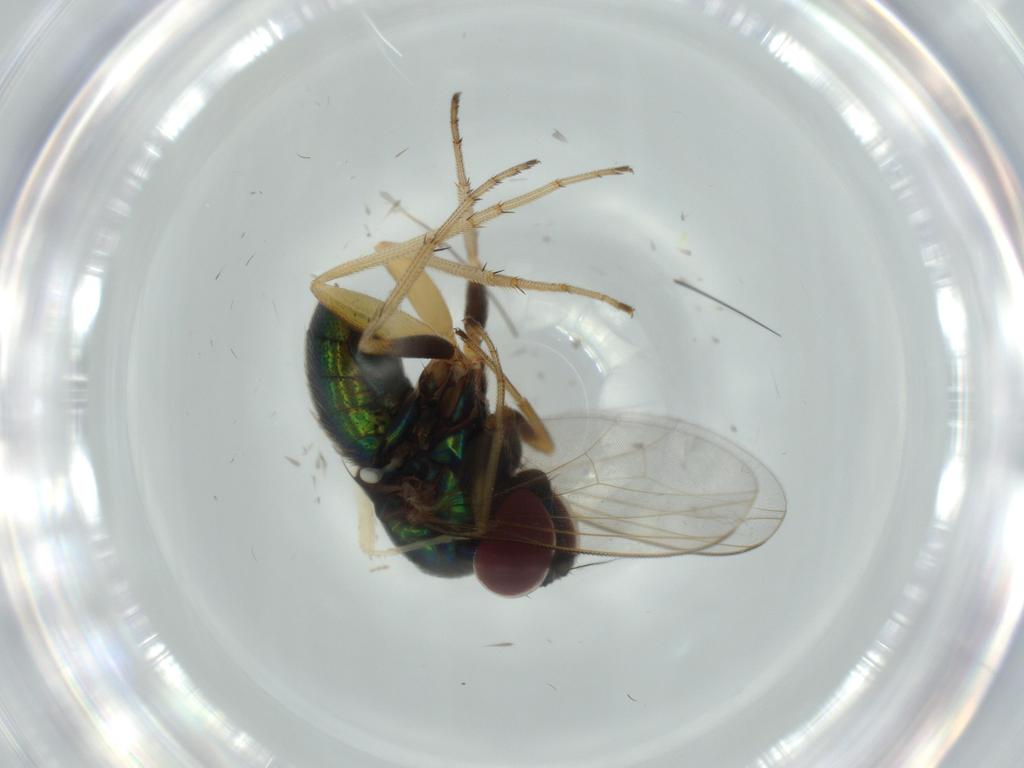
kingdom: Animalia
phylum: Arthropoda
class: Insecta
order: Diptera
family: Dolichopodidae
